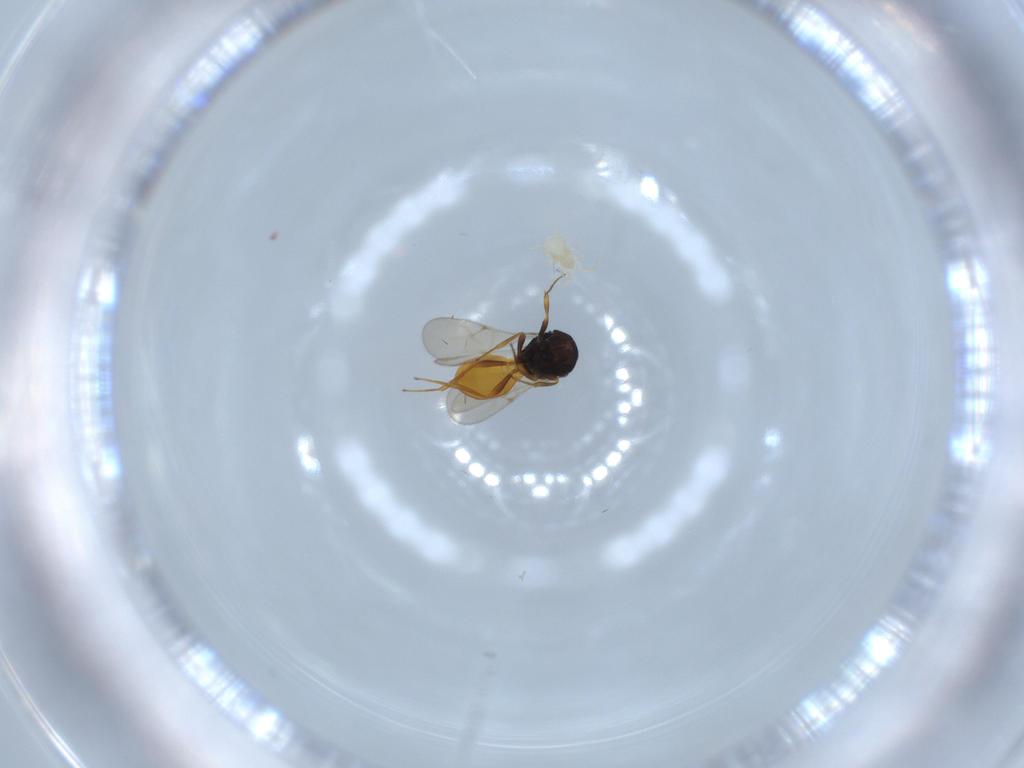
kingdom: Animalia
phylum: Arthropoda
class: Insecta
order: Hymenoptera
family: Scelionidae
